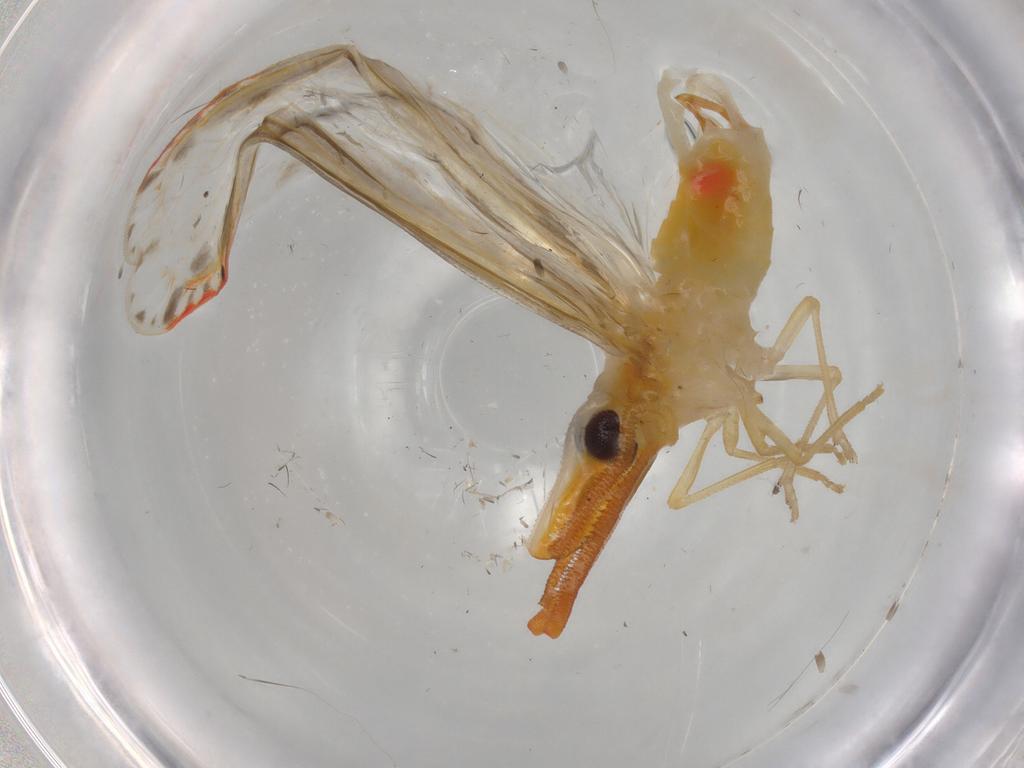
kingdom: Animalia
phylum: Arthropoda
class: Insecta
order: Hemiptera
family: Derbidae
